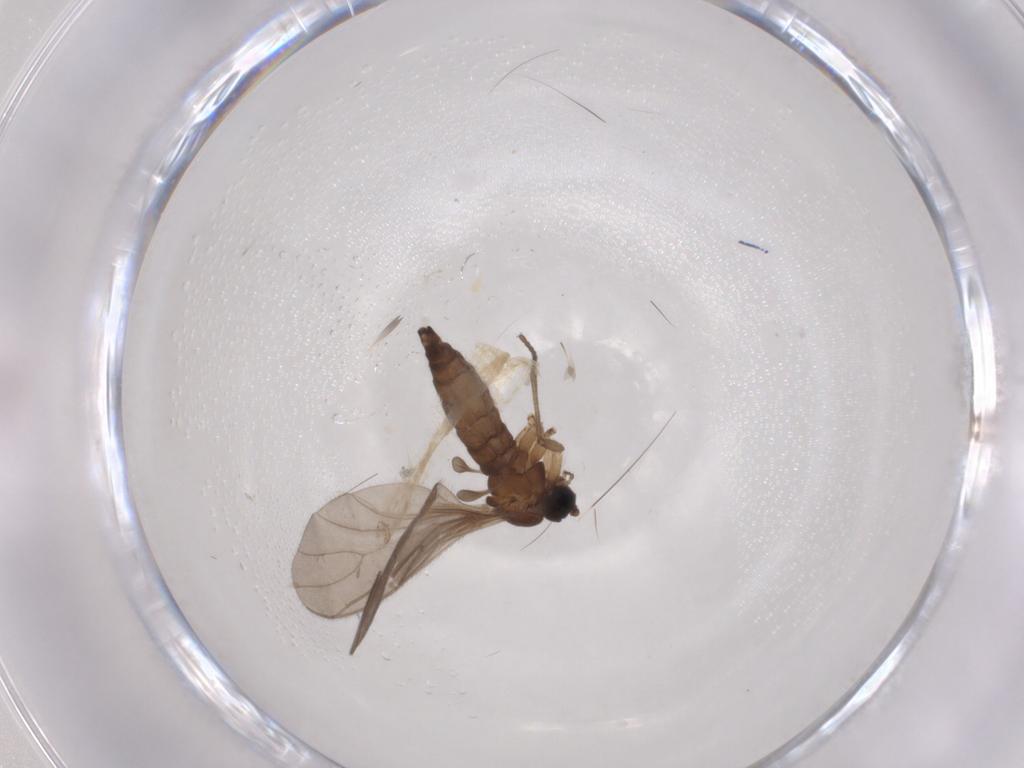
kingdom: Animalia
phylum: Arthropoda
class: Insecta
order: Diptera
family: Sciaridae
